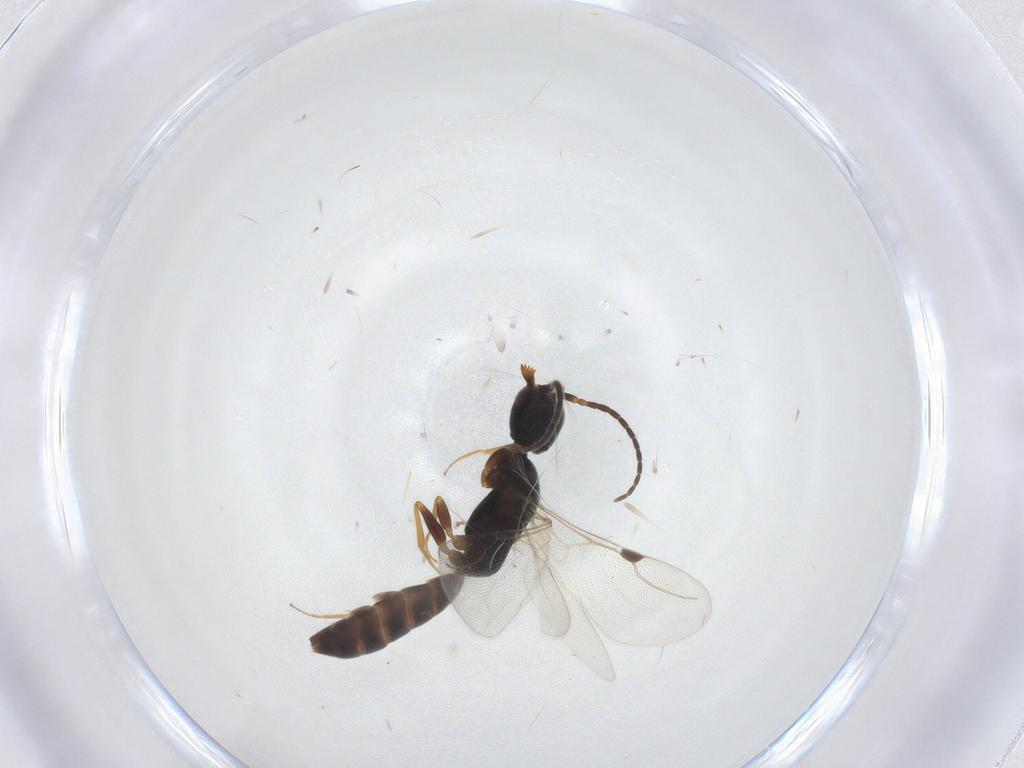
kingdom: Animalia
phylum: Arthropoda
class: Insecta
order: Hymenoptera
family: Bethylidae
